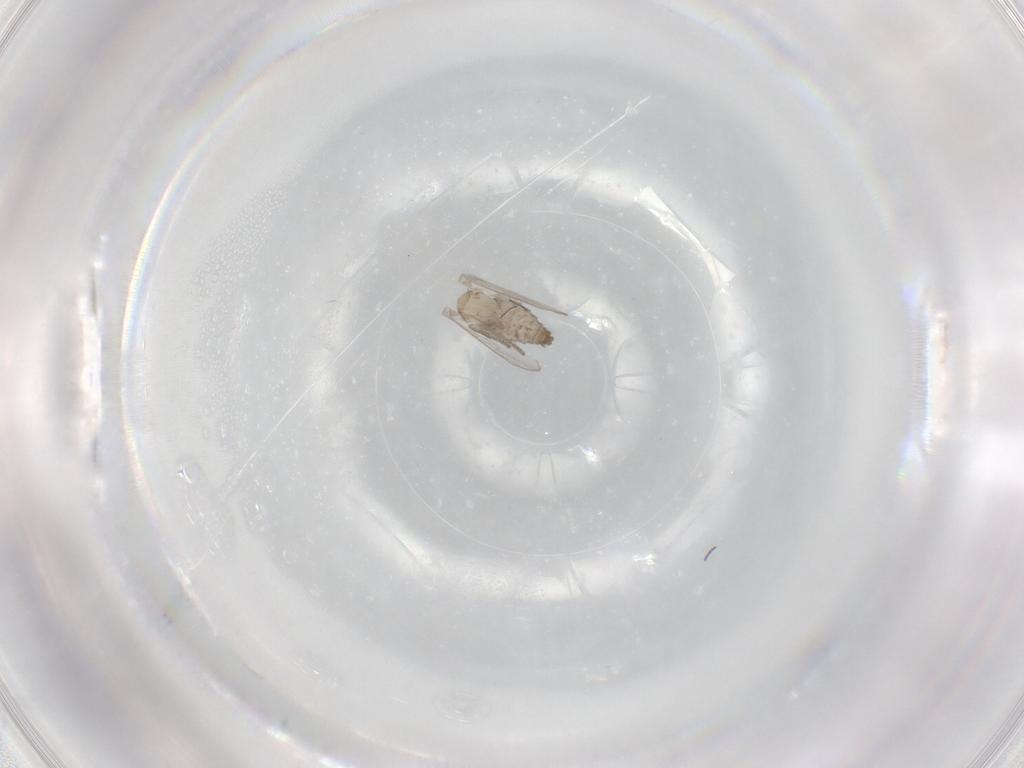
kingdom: Animalia
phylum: Arthropoda
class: Insecta
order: Diptera
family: Psychodidae
